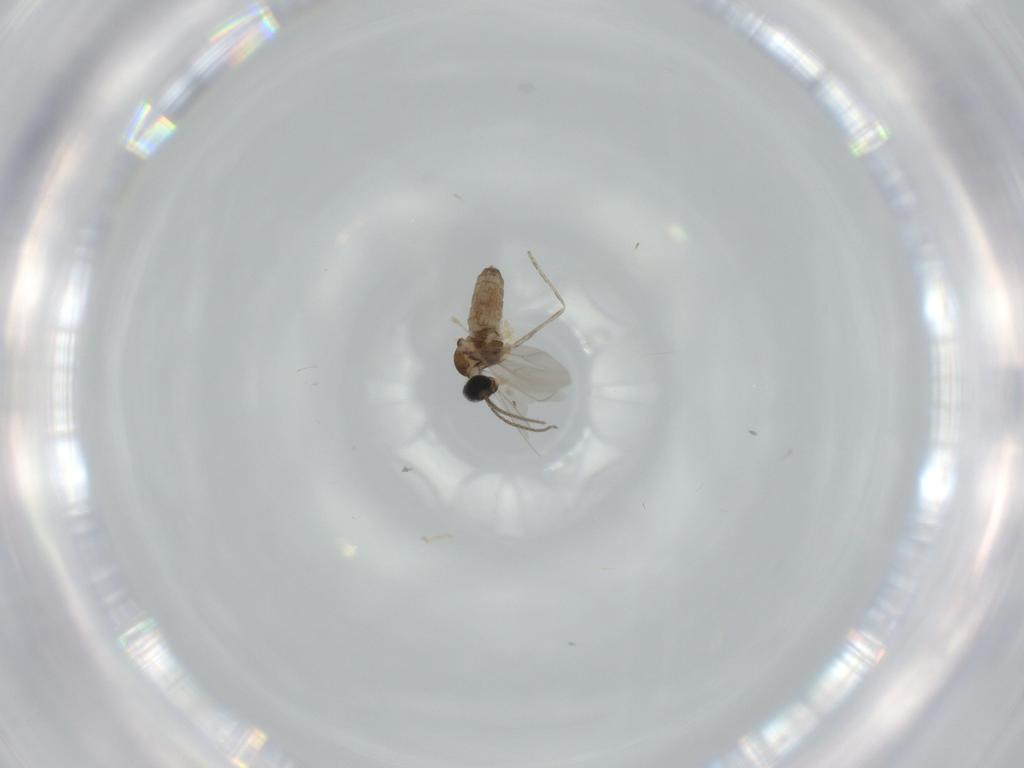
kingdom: Animalia
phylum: Arthropoda
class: Insecta
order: Diptera
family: Cecidomyiidae
